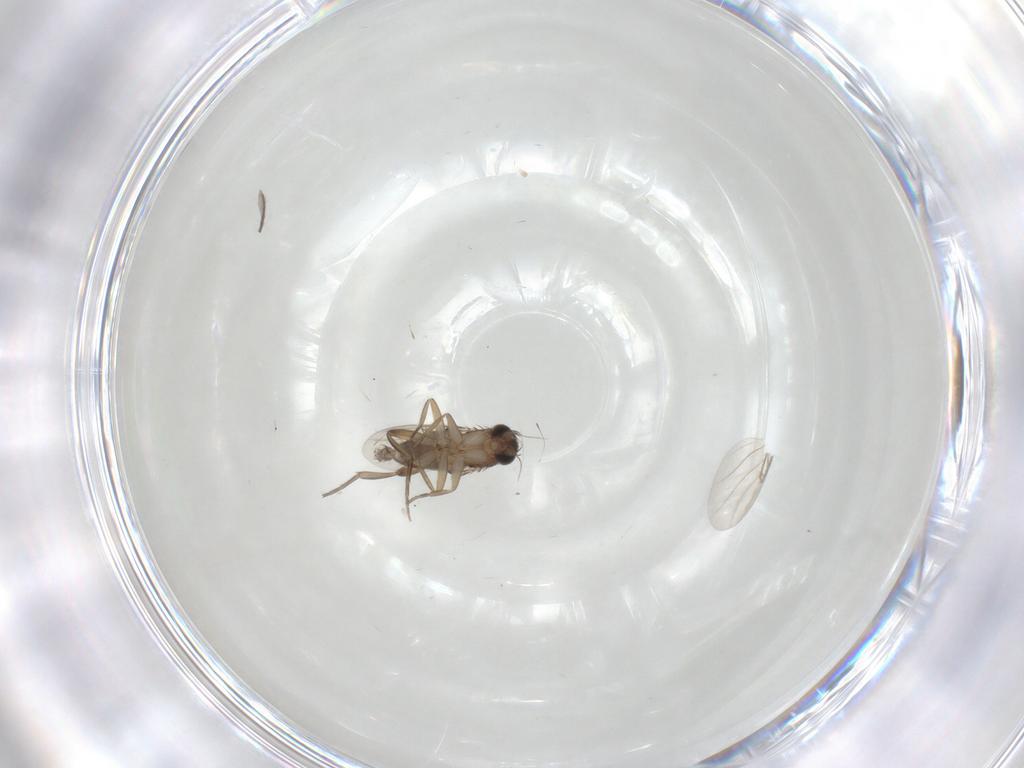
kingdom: Animalia
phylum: Arthropoda
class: Insecta
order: Diptera
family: Phoridae
